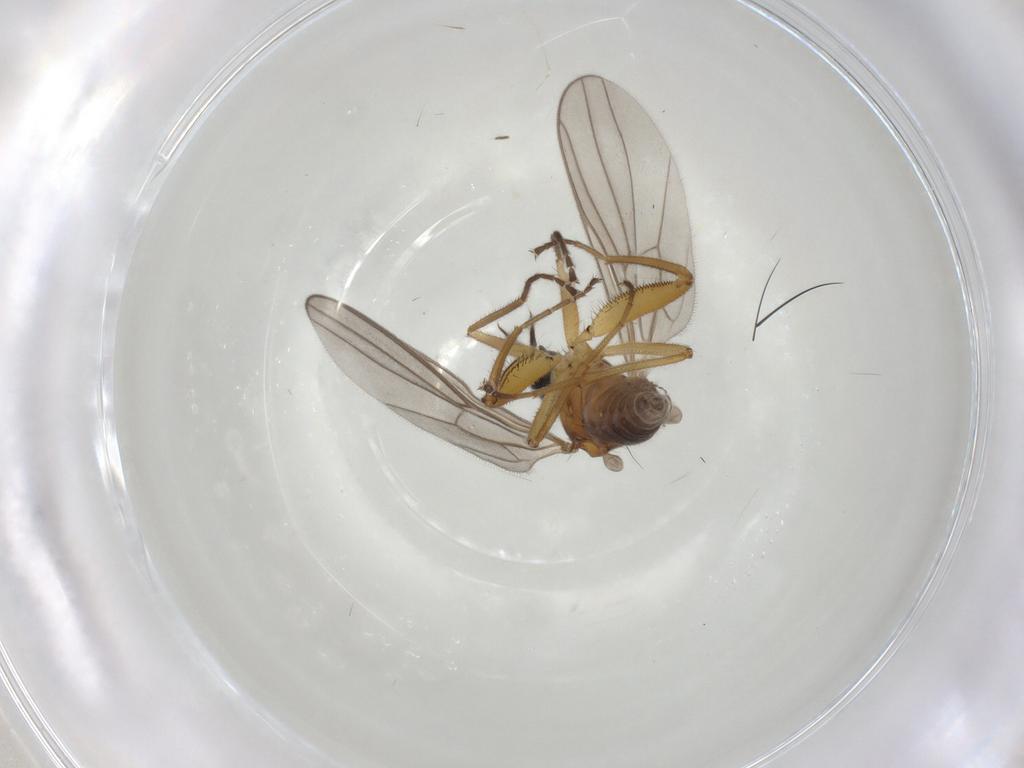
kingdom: Animalia
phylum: Arthropoda
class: Insecta
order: Diptera
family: Hybotidae
